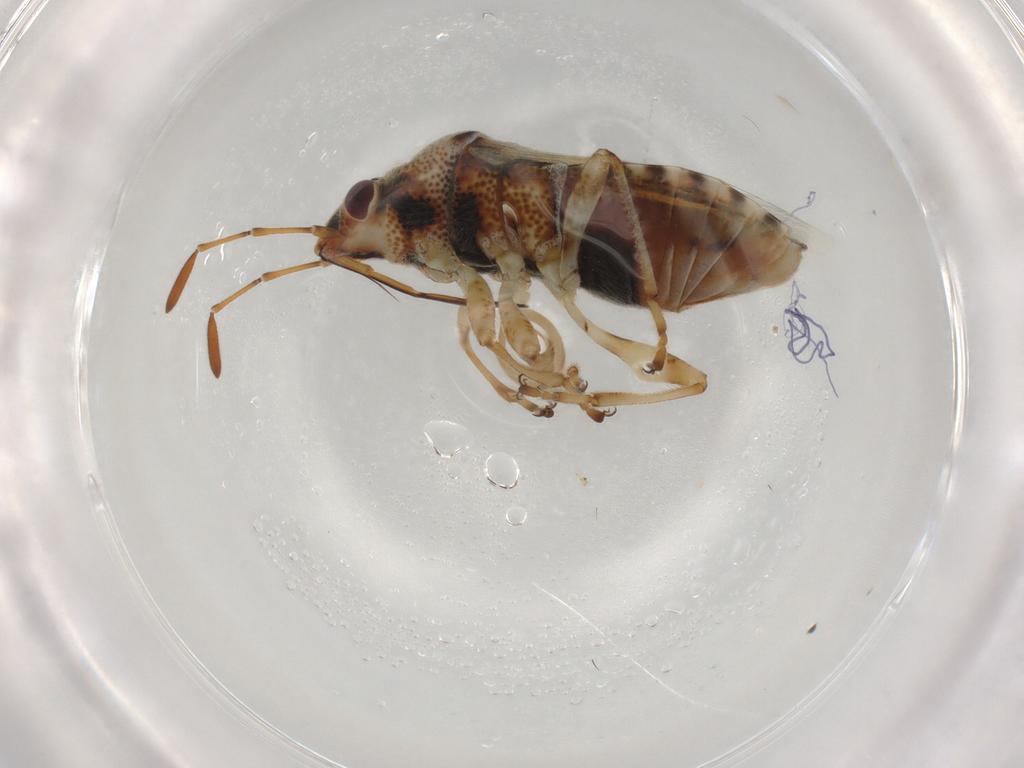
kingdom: Animalia
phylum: Arthropoda
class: Insecta
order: Hemiptera
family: Lygaeidae
